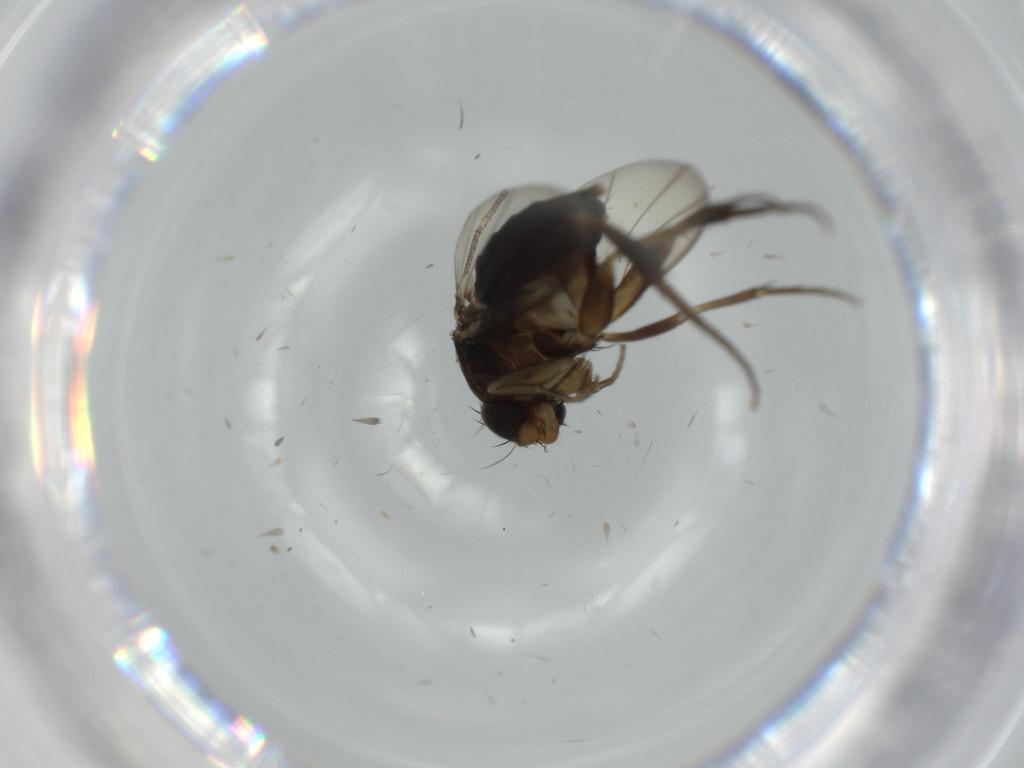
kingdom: Animalia
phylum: Arthropoda
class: Insecta
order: Diptera
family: Phoridae
